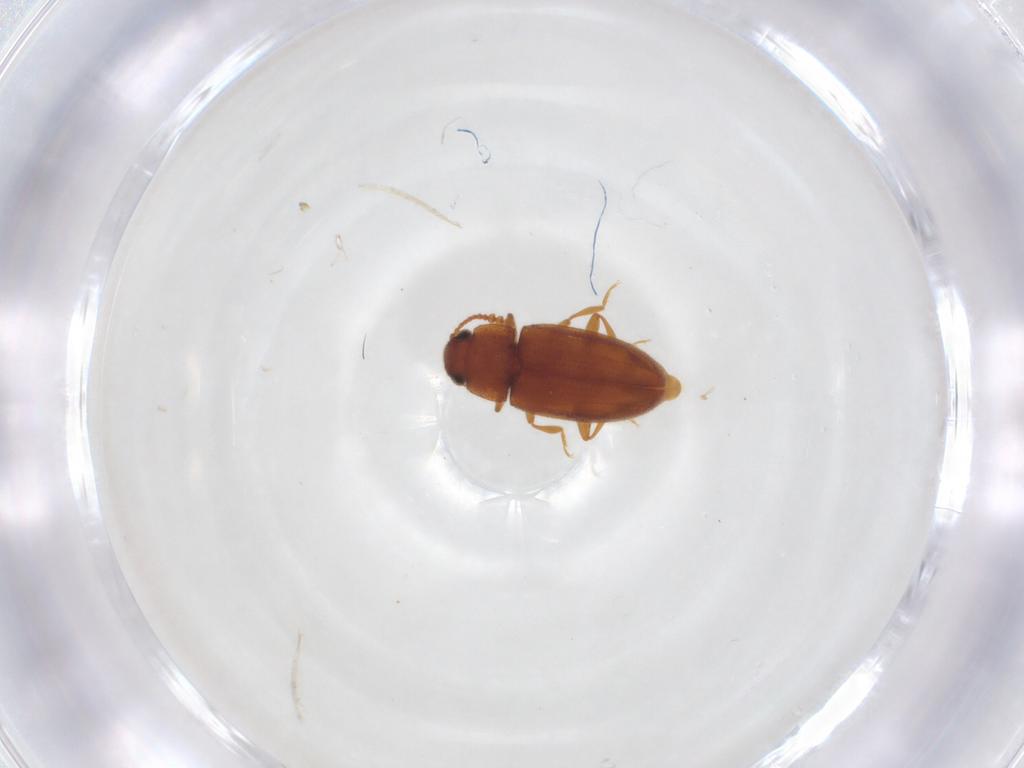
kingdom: Animalia
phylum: Arthropoda
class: Insecta
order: Coleoptera
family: Erotylidae
